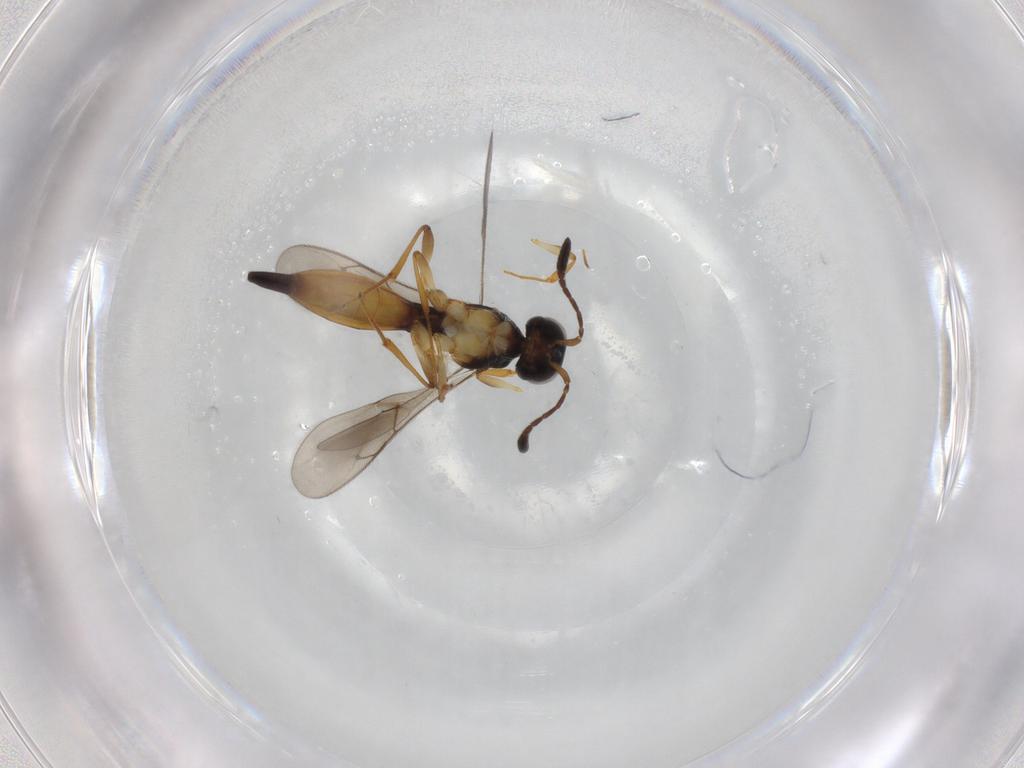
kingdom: Animalia
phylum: Arthropoda
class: Insecta
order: Hymenoptera
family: Scelionidae
